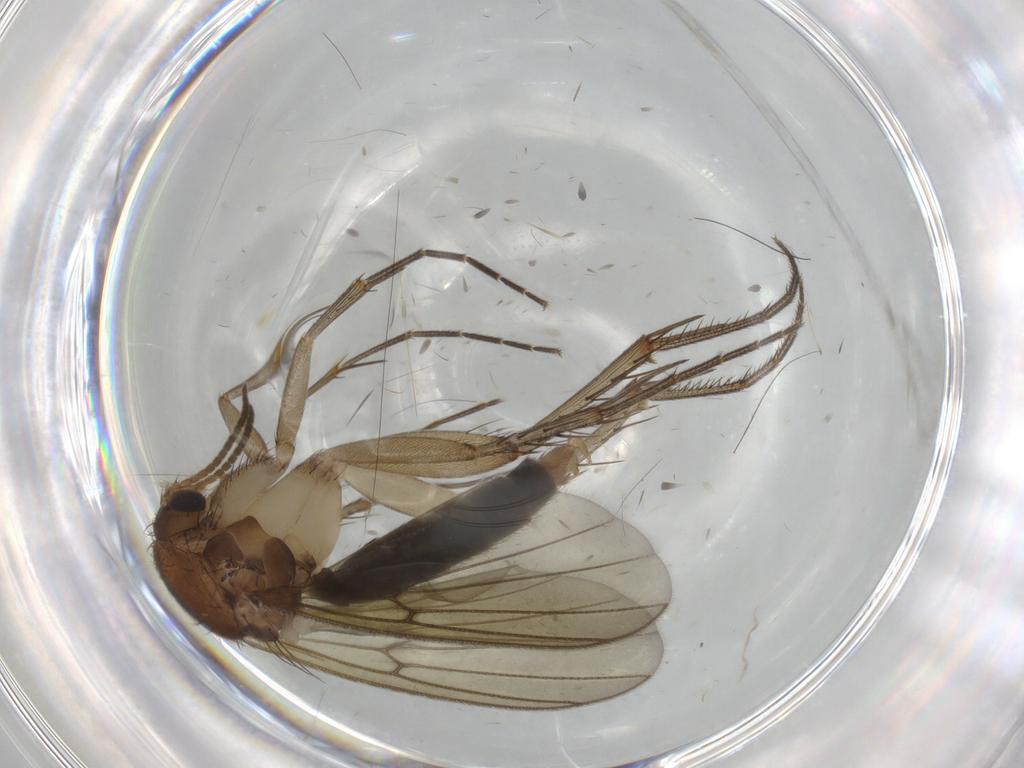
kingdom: Animalia
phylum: Arthropoda
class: Insecta
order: Diptera
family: Mycetophilidae
